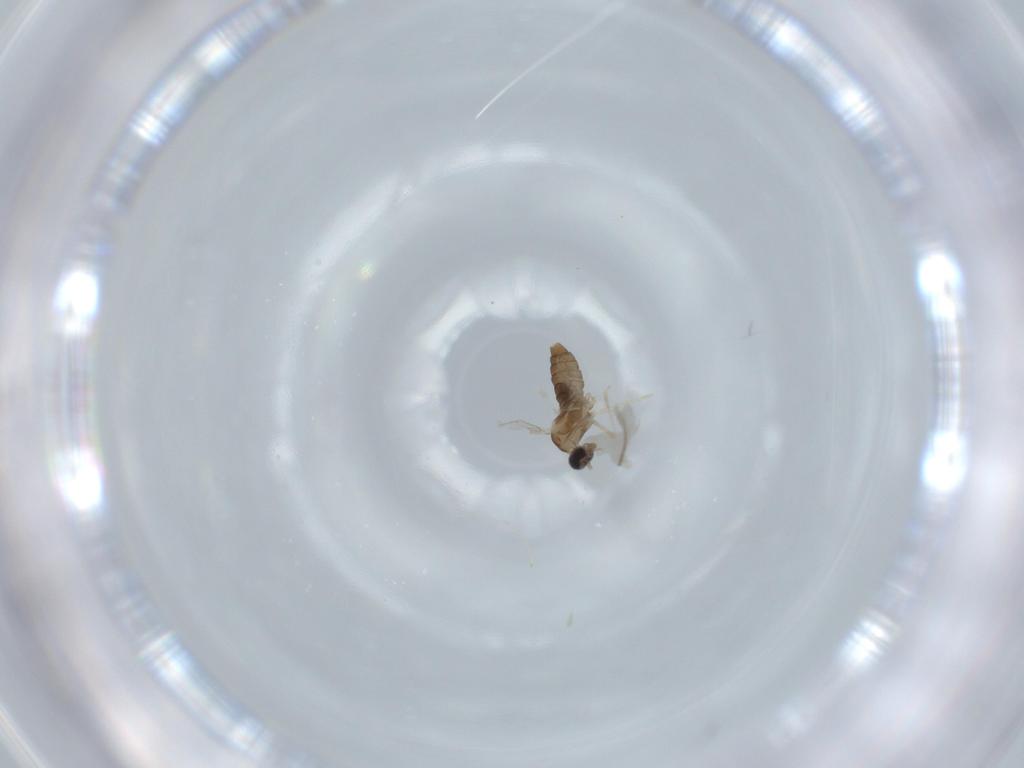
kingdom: Animalia
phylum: Arthropoda
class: Insecta
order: Diptera
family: Cecidomyiidae
